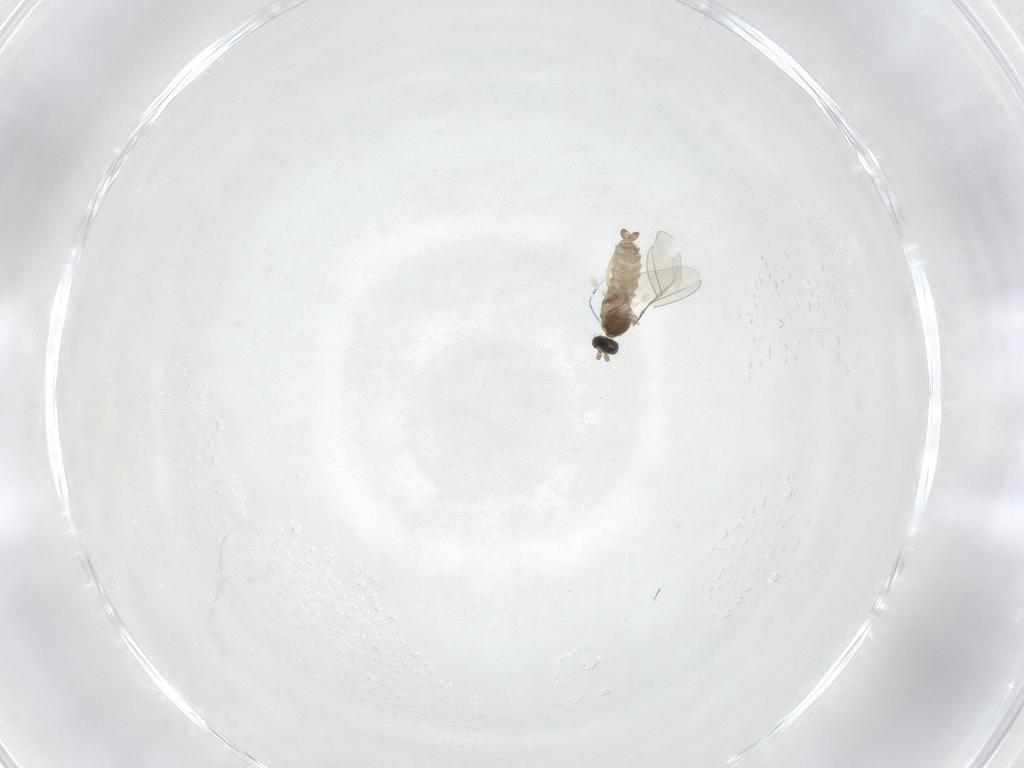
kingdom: Animalia
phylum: Arthropoda
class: Insecta
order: Diptera
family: Cecidomyiidae
